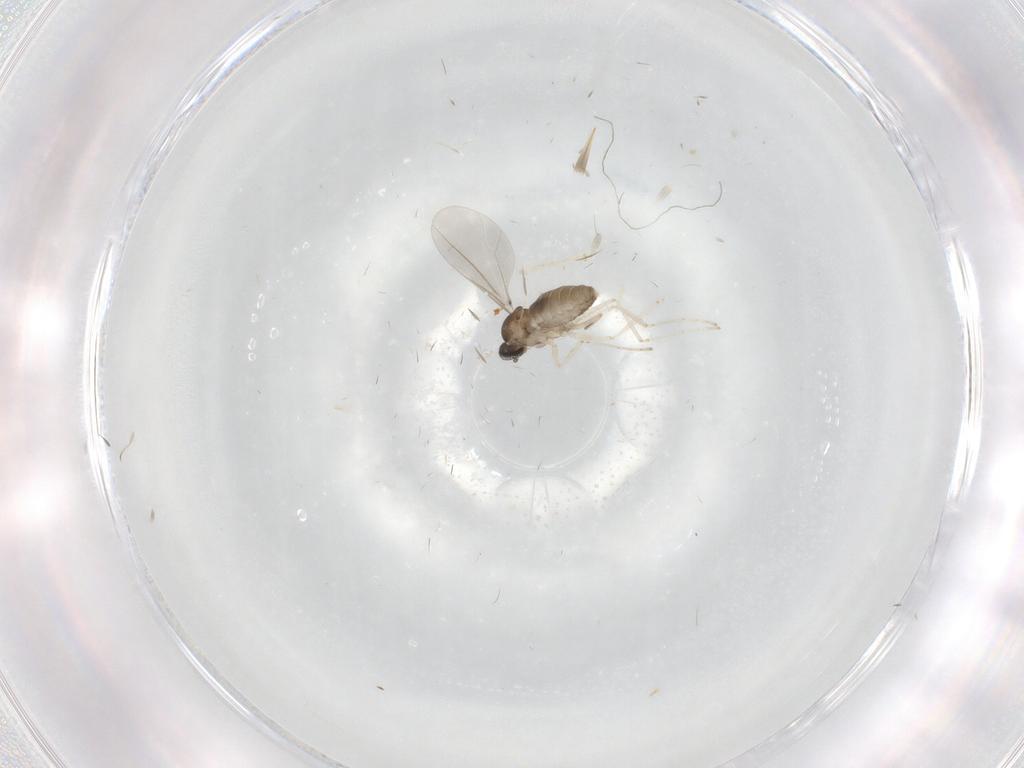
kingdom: Animalia
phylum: Arthropoda
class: Insecta
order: Diptera
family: Cecidomyiidae
